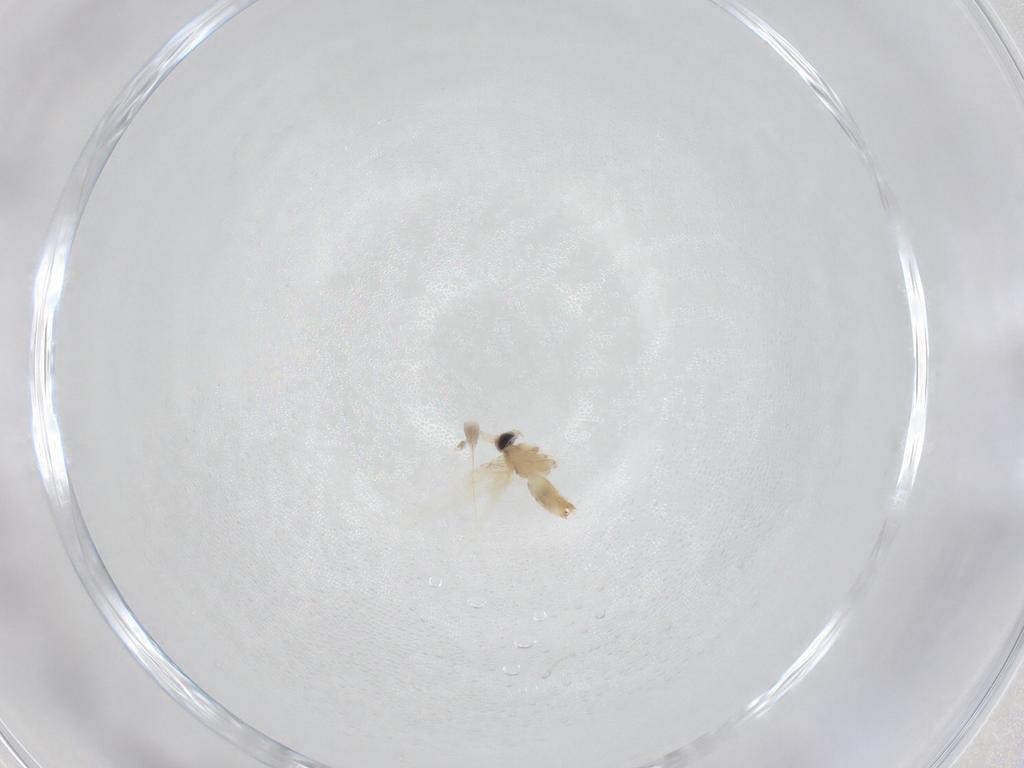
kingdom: Animalia
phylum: Arthropoda
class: Insecta
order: Lepidoptera
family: Crambidae
